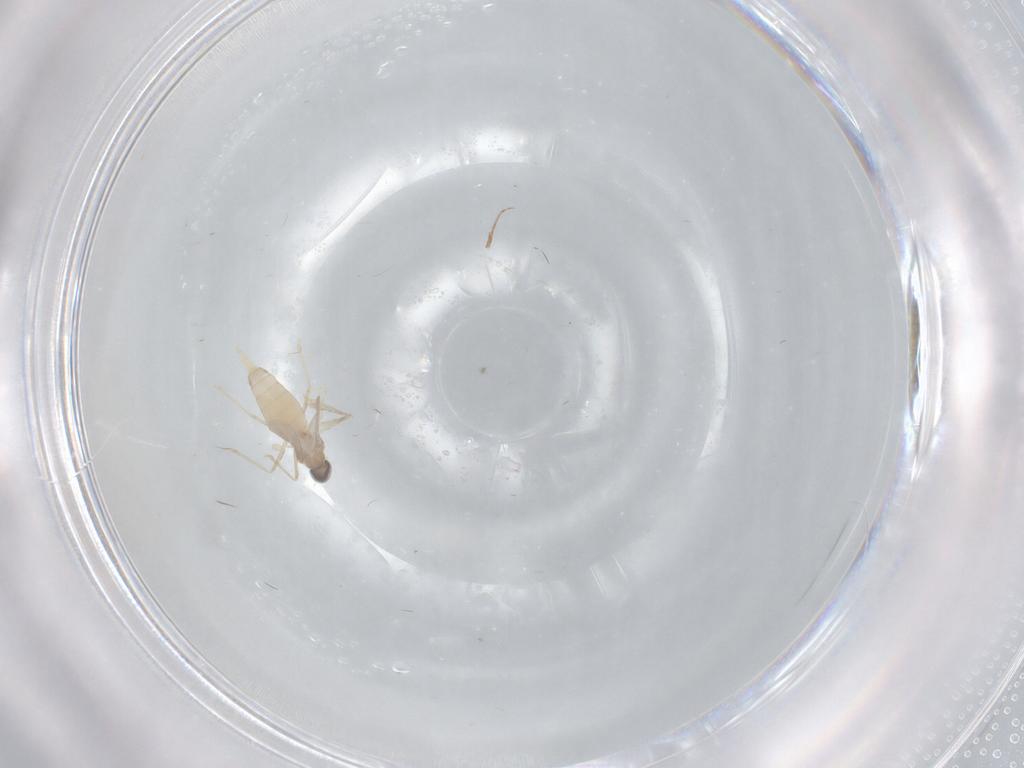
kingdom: Animalia
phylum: Arthropoda
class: Insecta
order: Diptera
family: Cecidomyiidae
